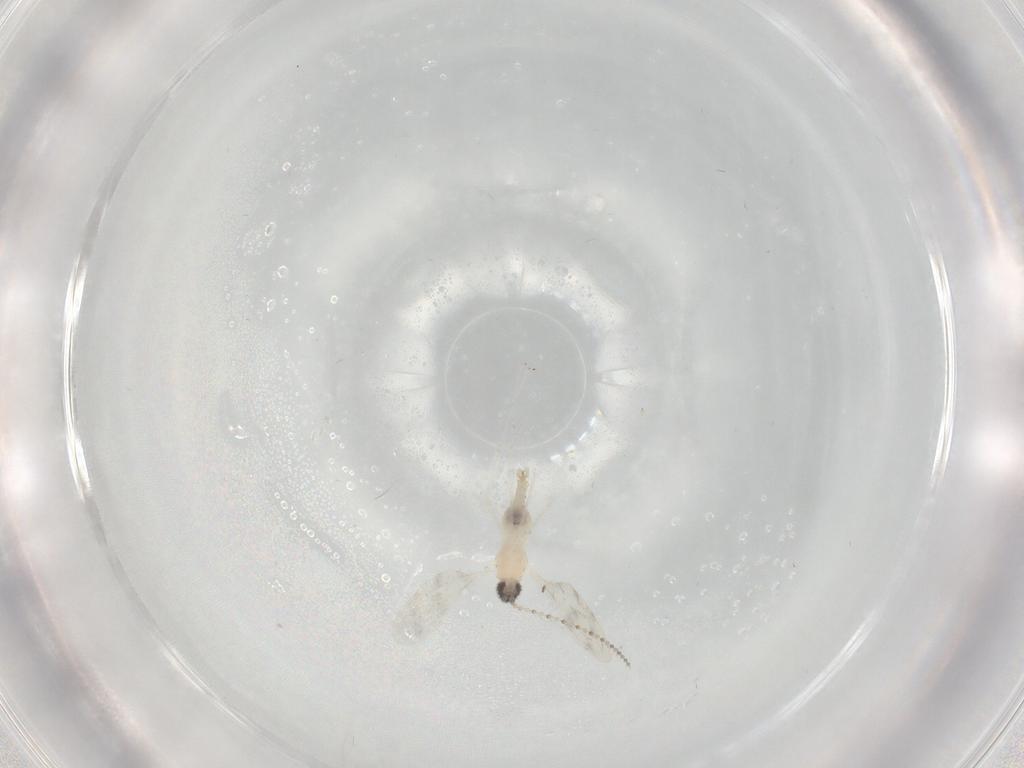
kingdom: Animalia
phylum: Arthropoda
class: Insecta
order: Diptera
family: Cecidomyiidae
